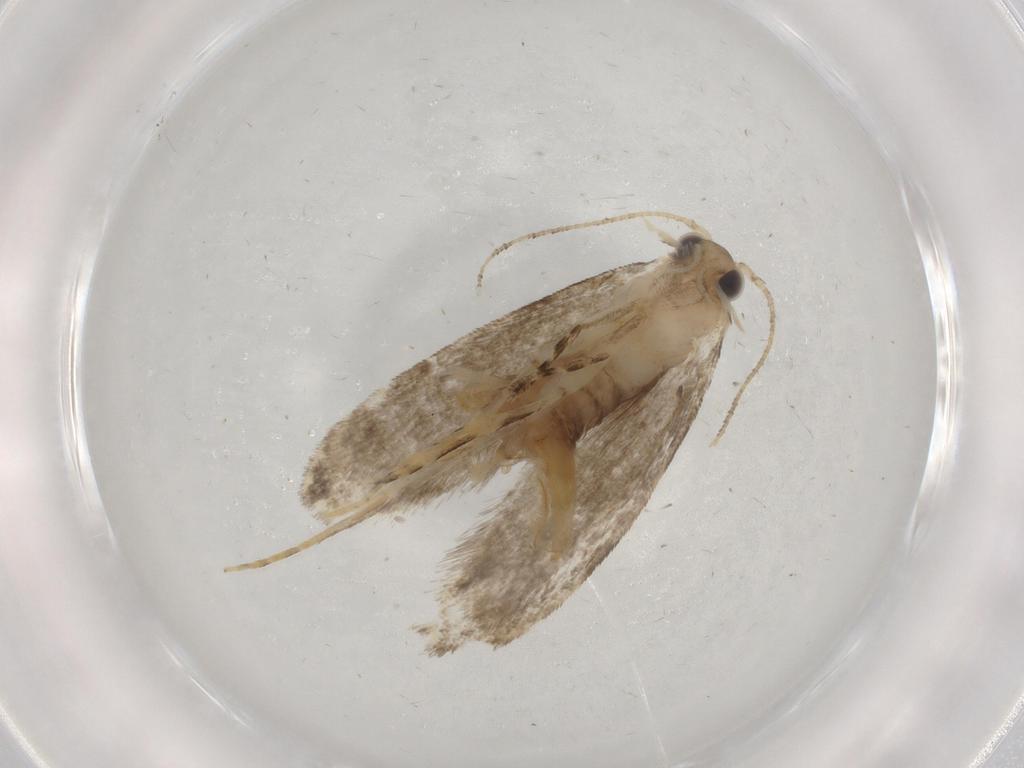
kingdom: Animalia
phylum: Arthropoda
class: Insecta
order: Lepidoptera
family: Tineidae
